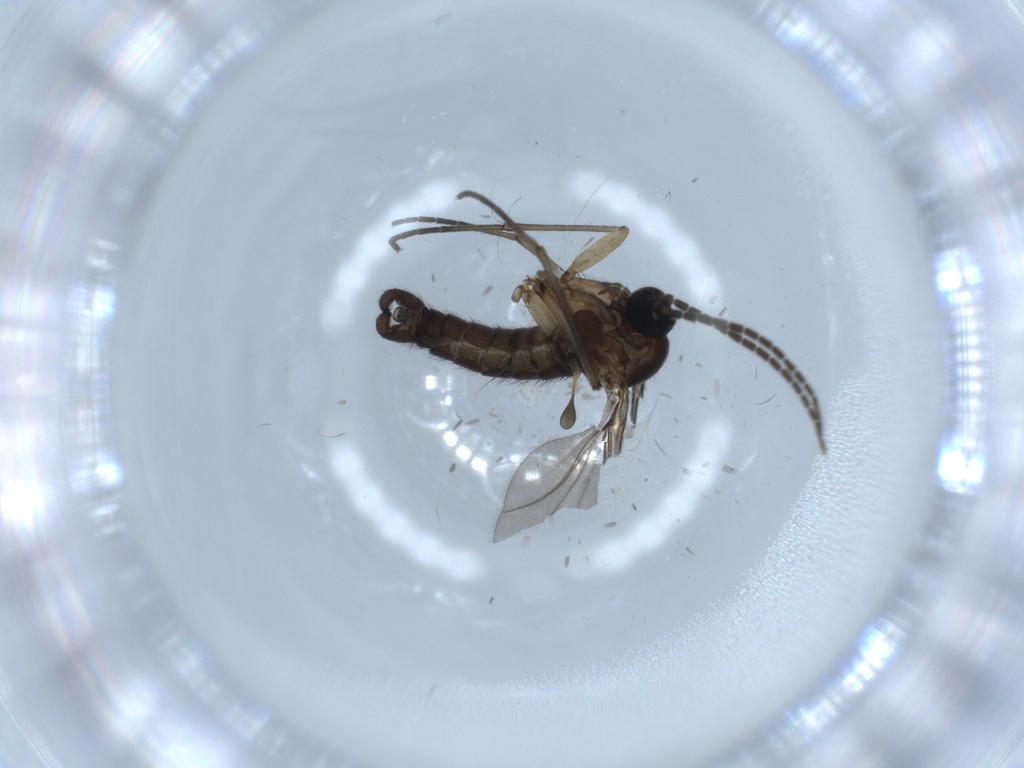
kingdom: Animalia
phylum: Arthropoda
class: Insecta
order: Diptera
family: Sciaridae
